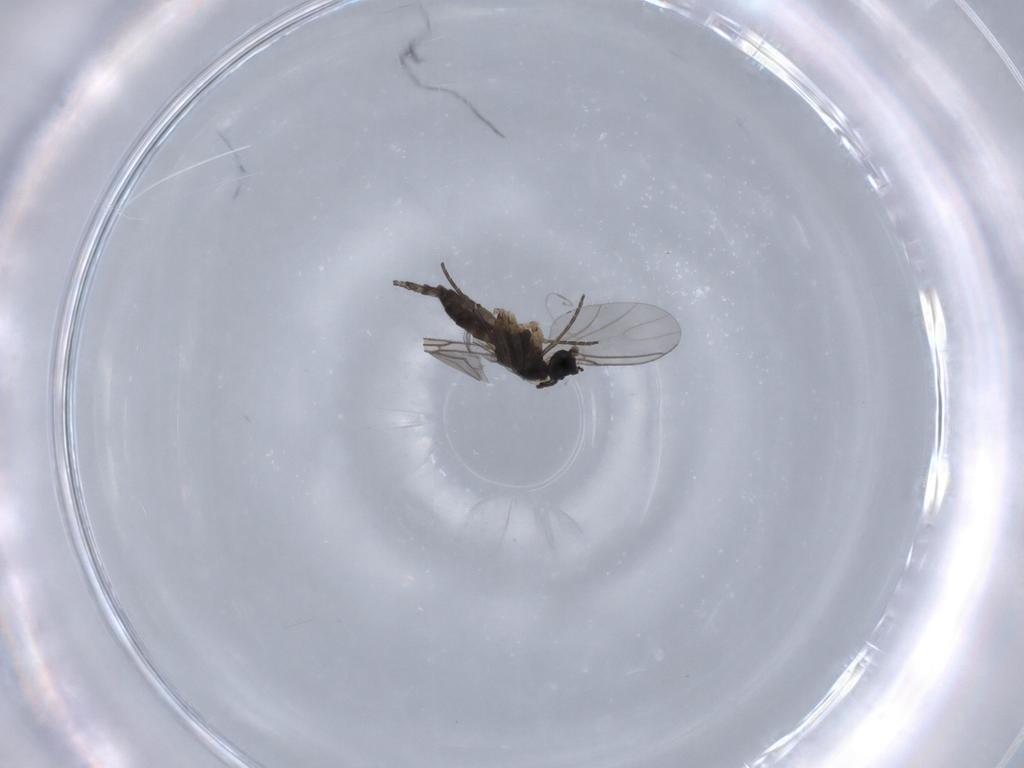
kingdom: Animalia
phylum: Arthropoda
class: Insecta
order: Diptera
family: Sciaridae
